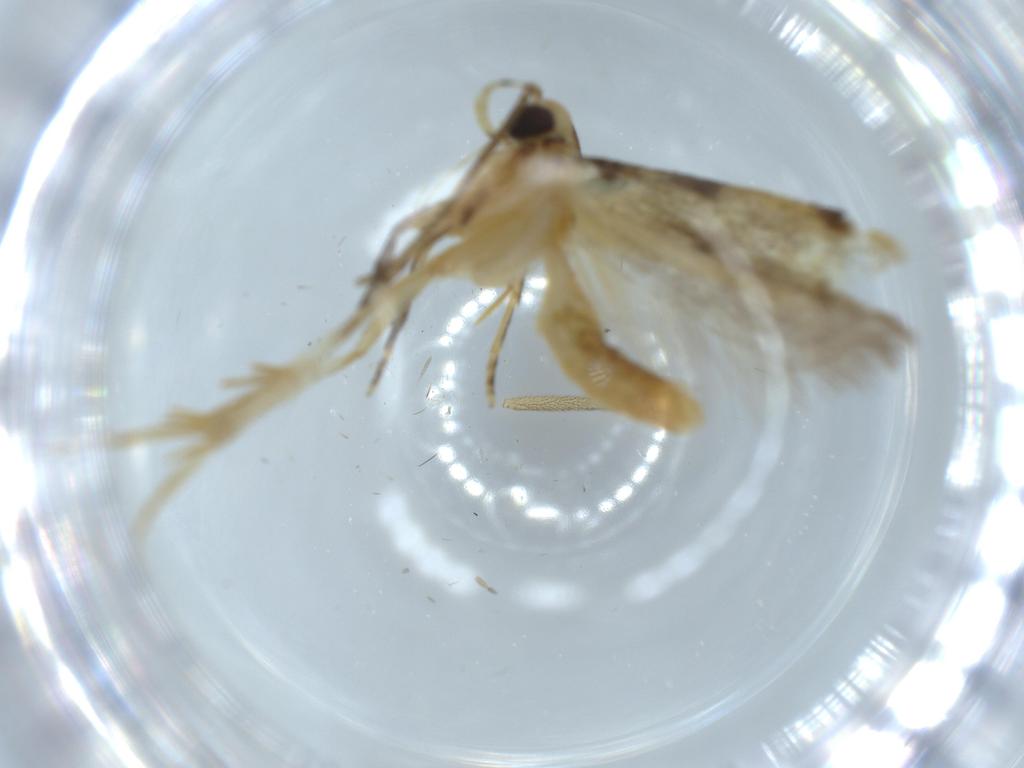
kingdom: Animalia
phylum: Arthropoda
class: Insecta
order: Lepidoptera
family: Autostichidae
